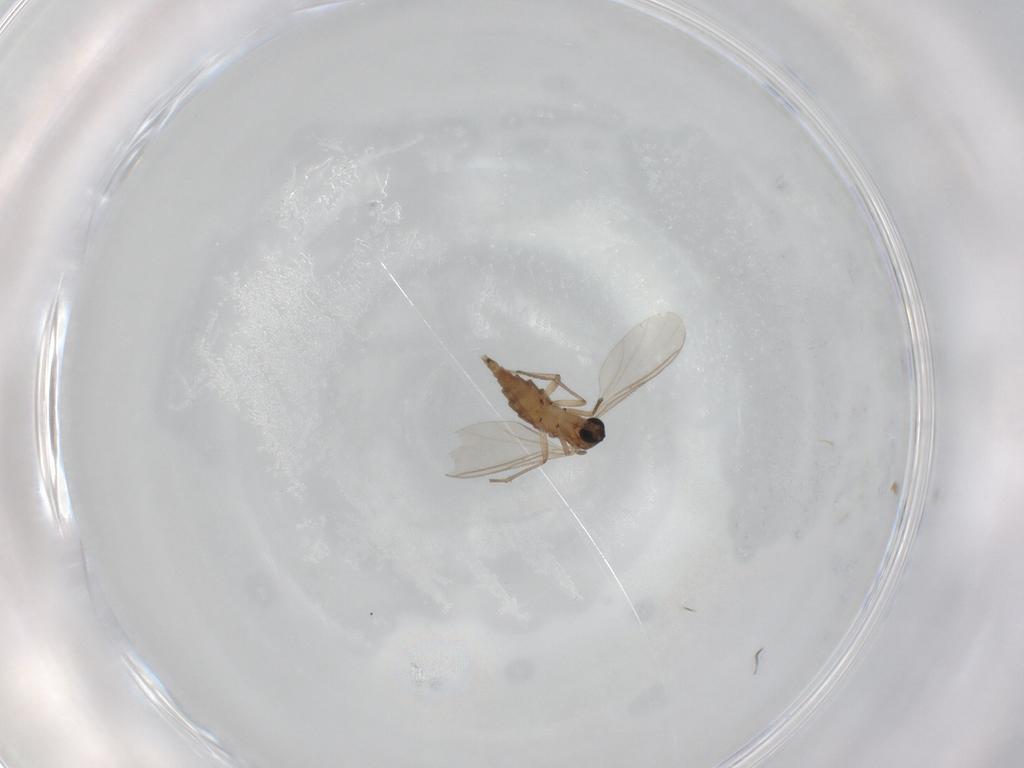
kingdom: Animalia
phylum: Arthropoda
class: Insecta
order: Diptera
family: Sciaridae
